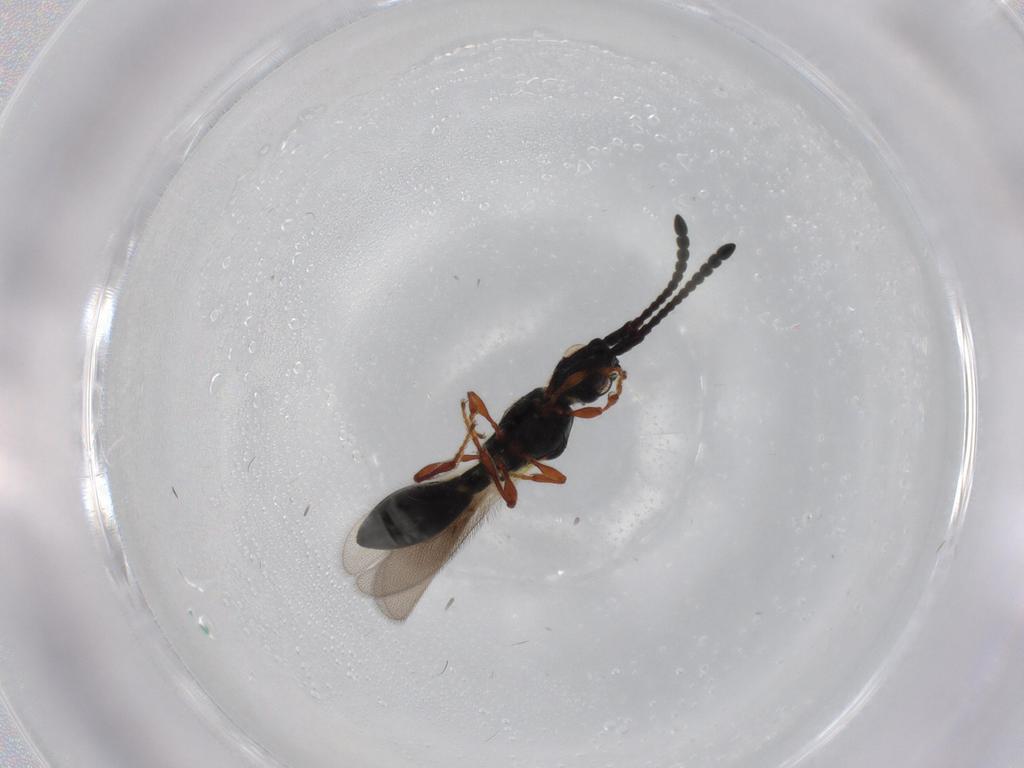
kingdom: Animalia
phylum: Arthropoda
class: Insecta
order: Hymenoptera
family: Diapriidae
